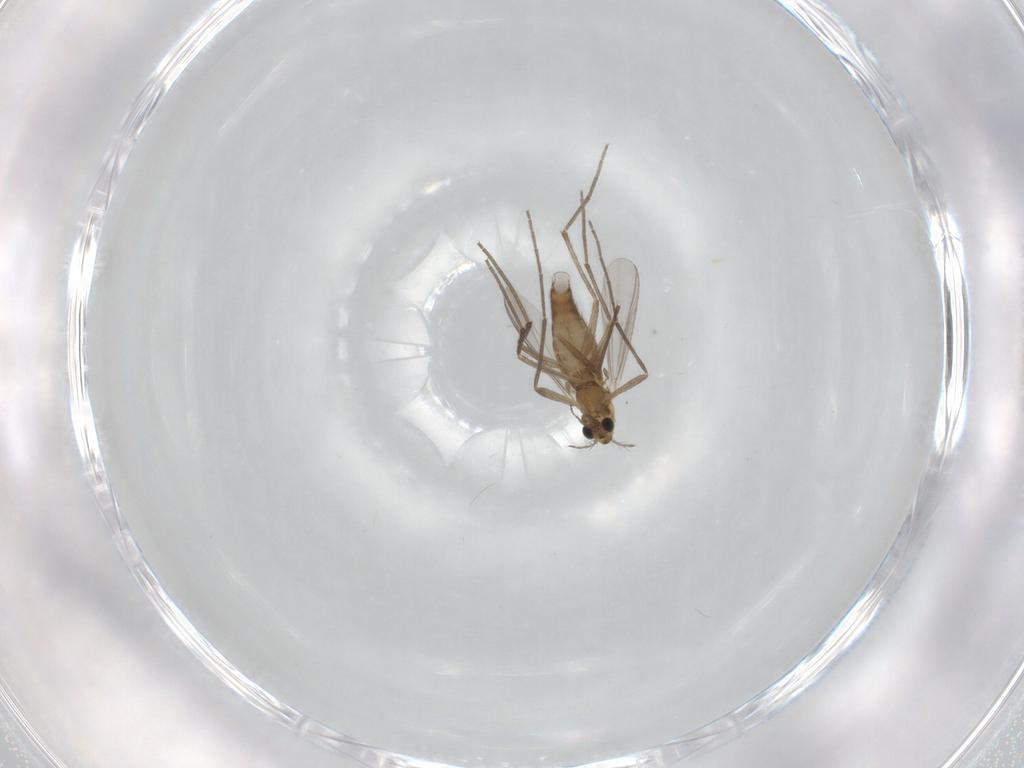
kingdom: Animalia
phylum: Arthropoda
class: Insecta
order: Diptera
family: Chironomidae
